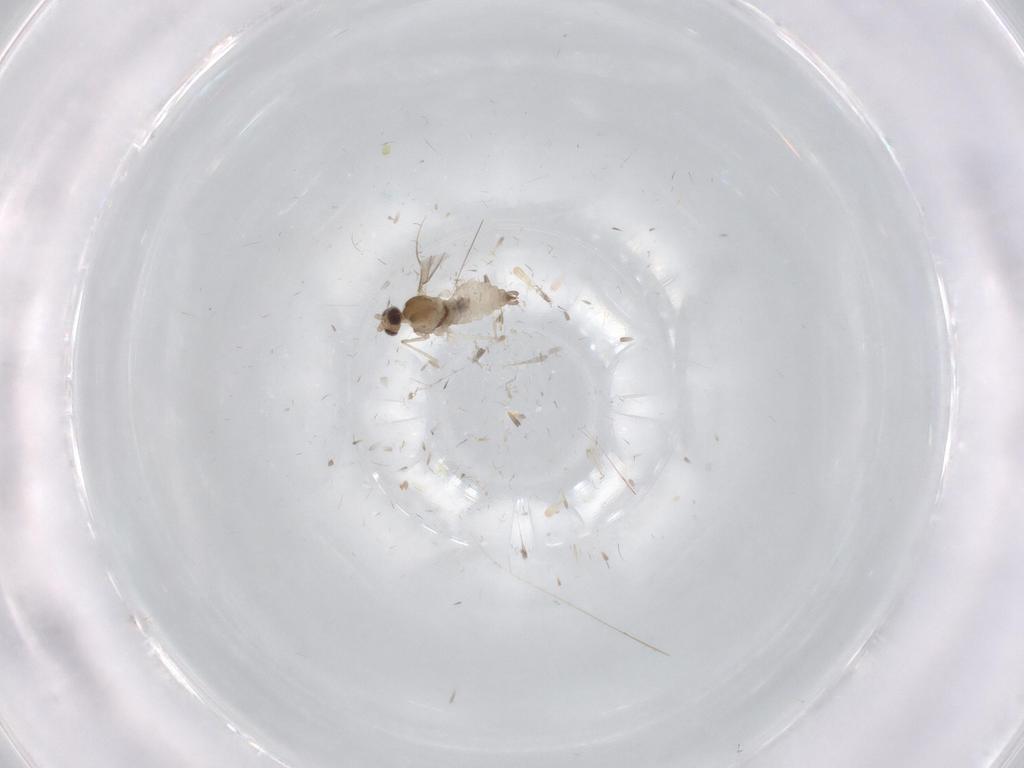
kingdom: Animalia
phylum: Arthropoda
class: Insecta
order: Diptera
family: Cecidomyiidae
